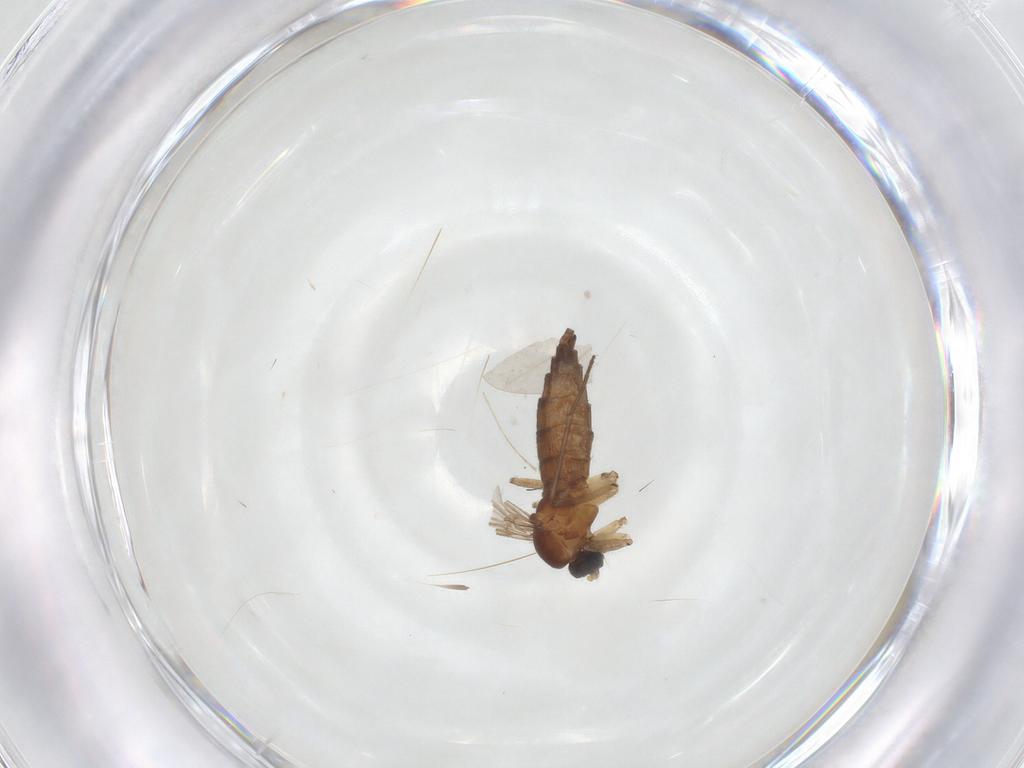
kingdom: Animalia
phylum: Arthropoda
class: Insecta
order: Diptera
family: Sciaridae
